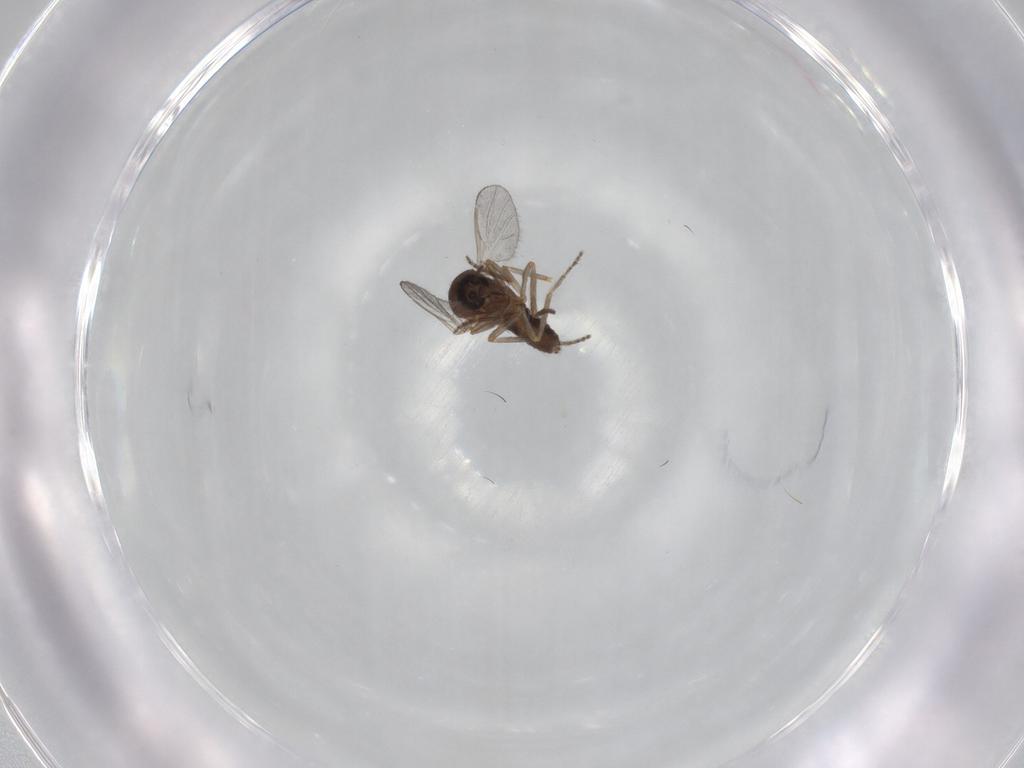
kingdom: Animalia
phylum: Arthropoda
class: Insecta
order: Diptera
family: Ceratopogonidae
